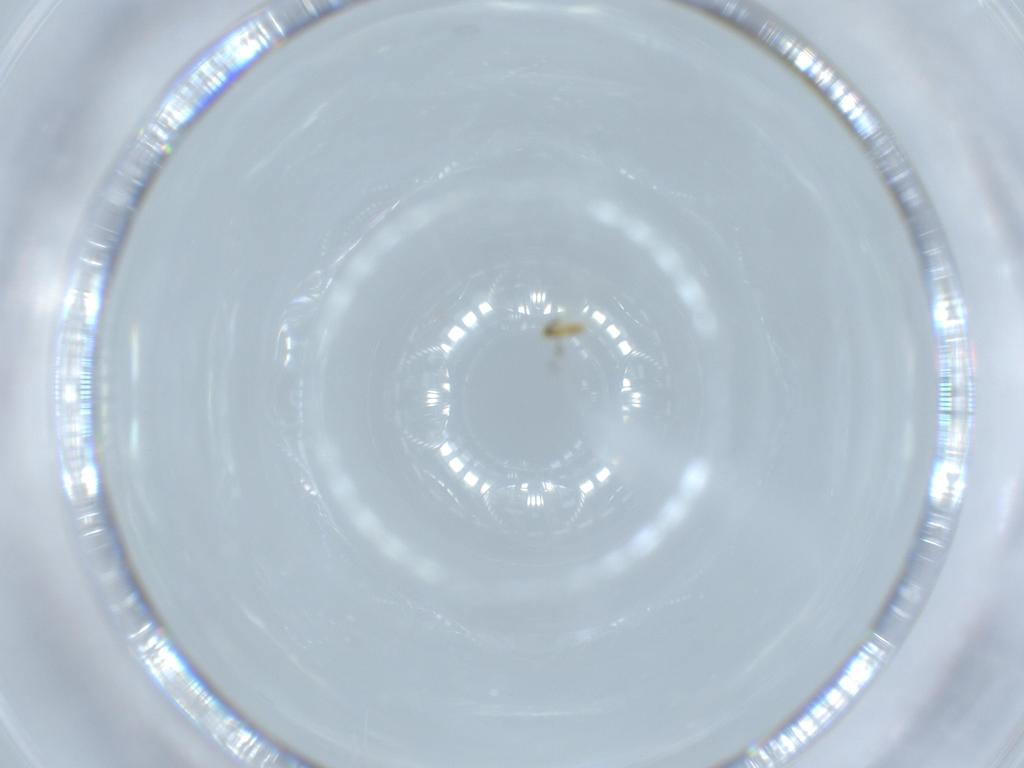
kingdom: Animalia
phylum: Arthropoda
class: Insecta
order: Hymenoptera
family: Signiphoridae
